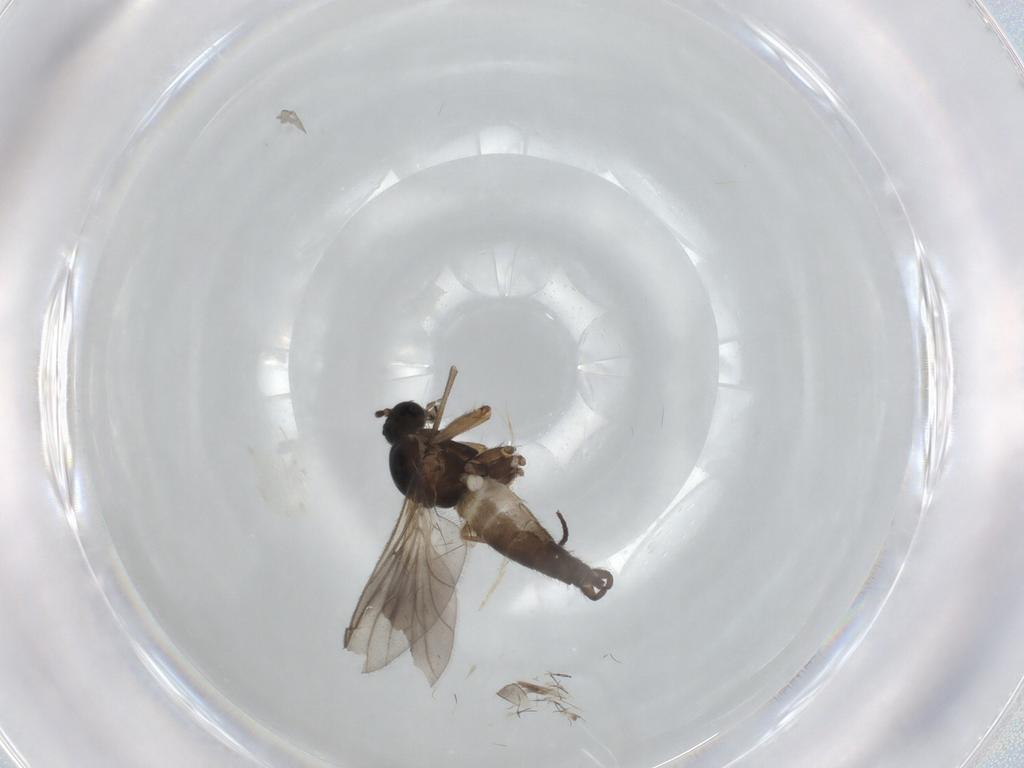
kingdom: Animalia
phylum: Arthropoda
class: Insecta
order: Diptera
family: Sciaridae
